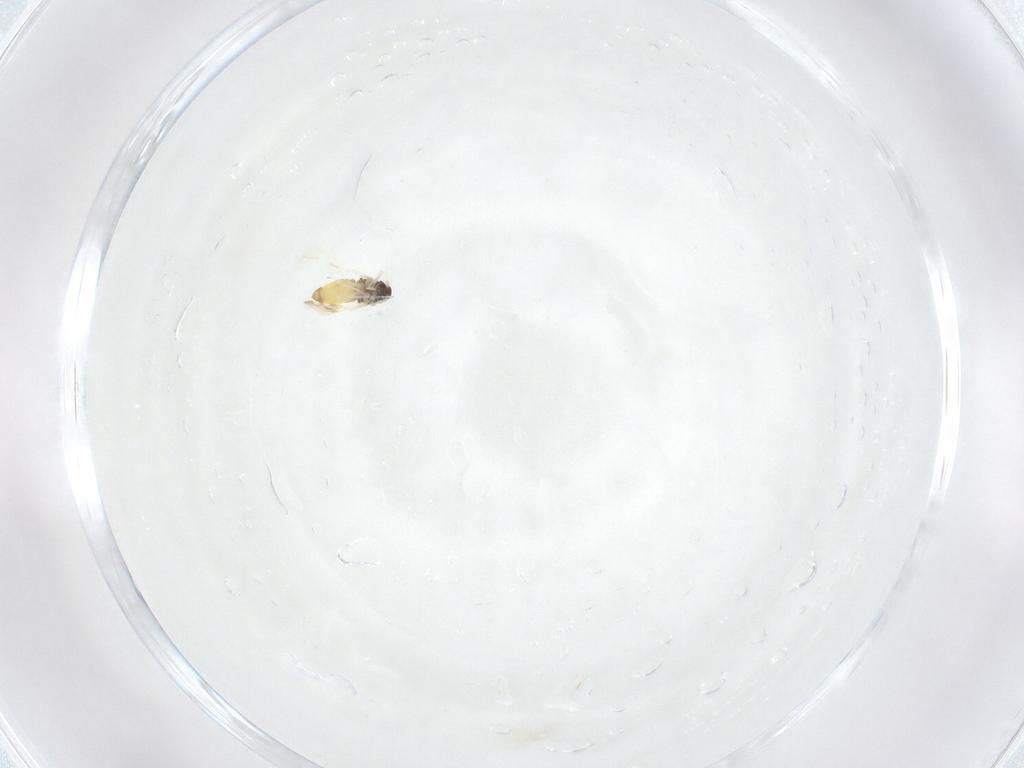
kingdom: Animalia
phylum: Arthropoda
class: Insecta
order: Hemiptera
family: Aleyrodidae
